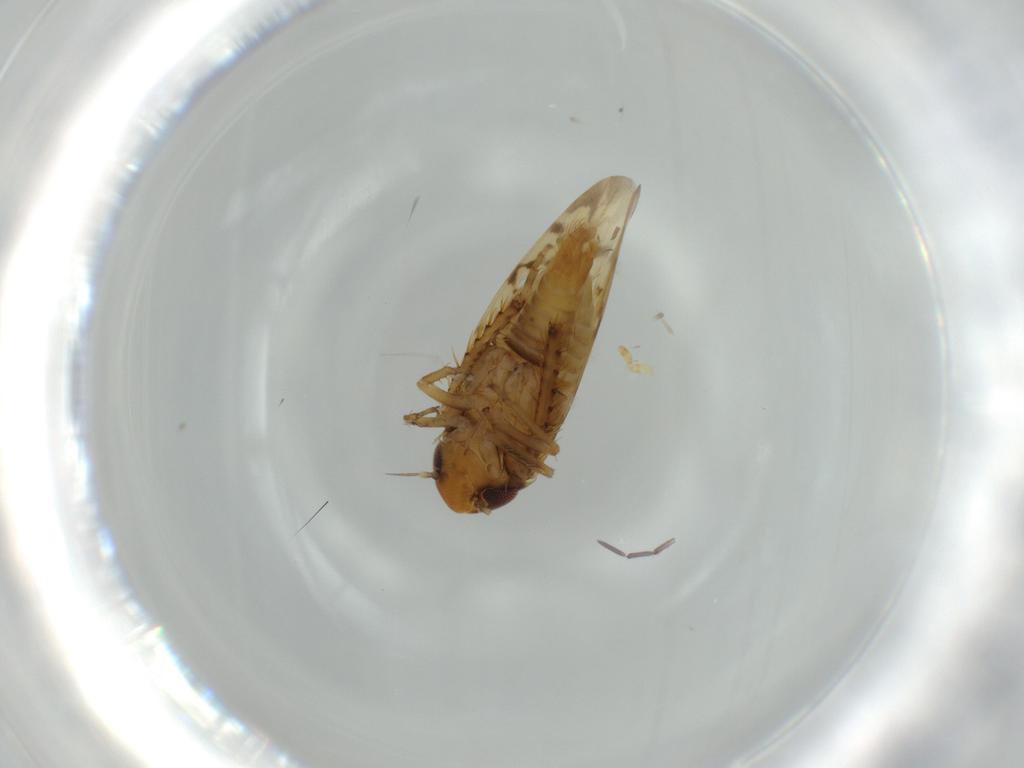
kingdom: Animalia
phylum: Arthropoda
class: Insecta
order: Hemiptera
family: Cicadellidae
